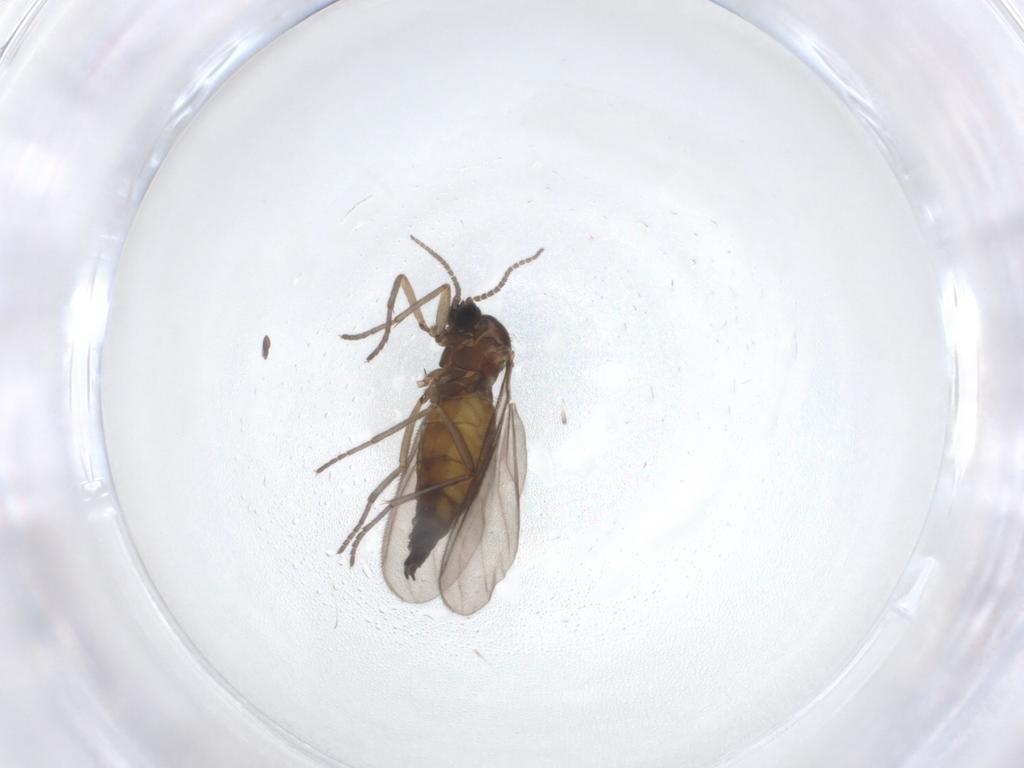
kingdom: Animalia
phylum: Arthropoda
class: Insecta
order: Diptera
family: Sciaridae
